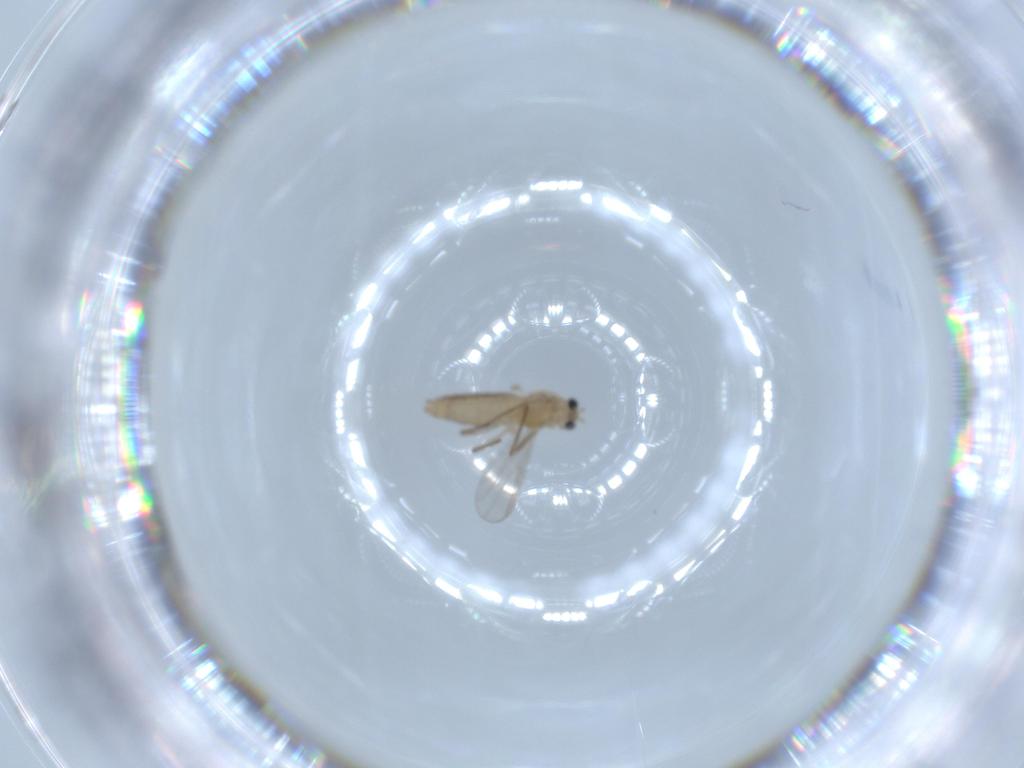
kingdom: Animalia
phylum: Arthropoda
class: Insecta
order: Diptera
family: Chironomidae
